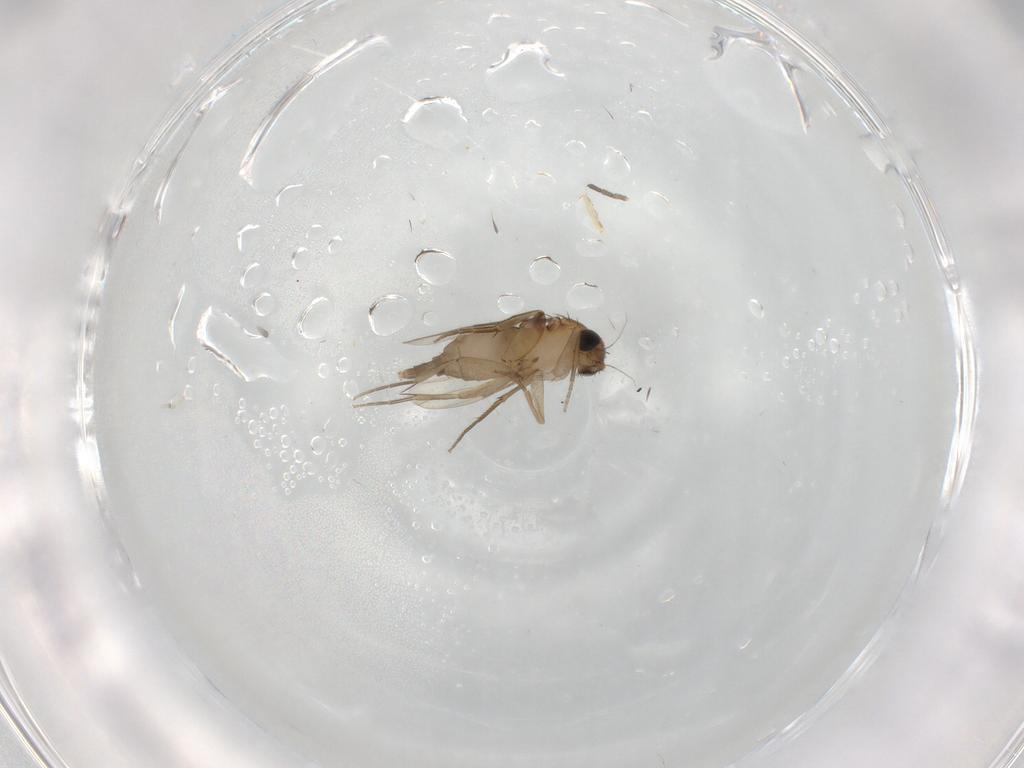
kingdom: Animalia
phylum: Arthropoda
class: Insecta
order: Diptera
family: Phoridae
